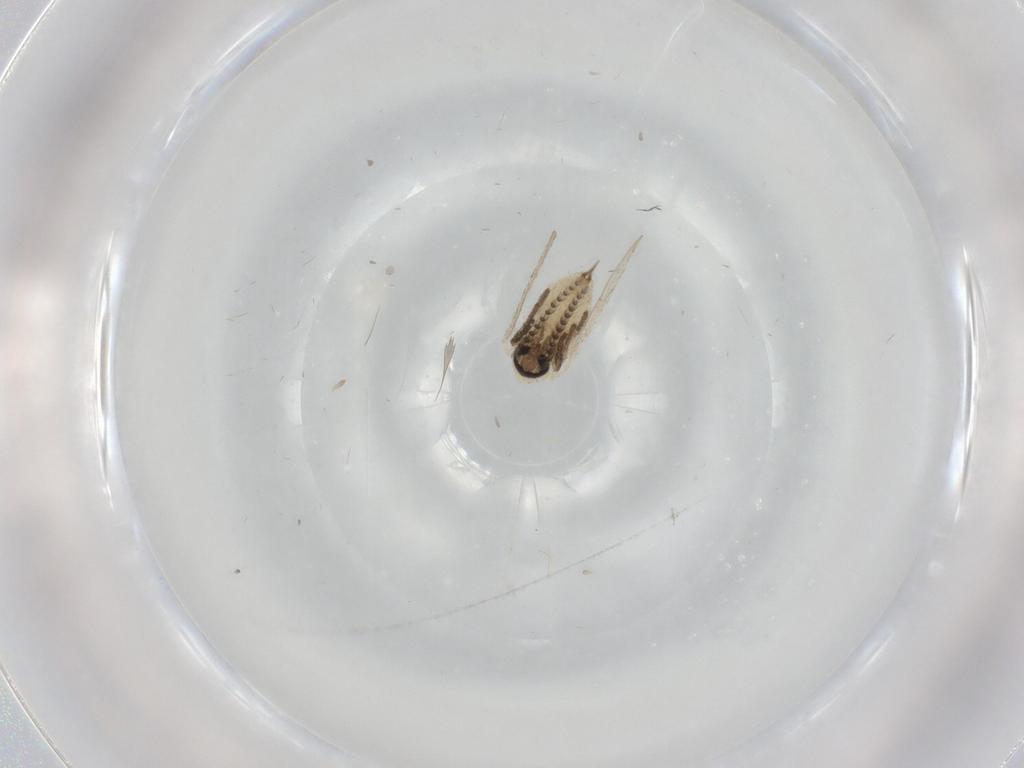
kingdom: Animalia
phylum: Arthropoda
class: Insecta
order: Diptera
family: Psychodidae
